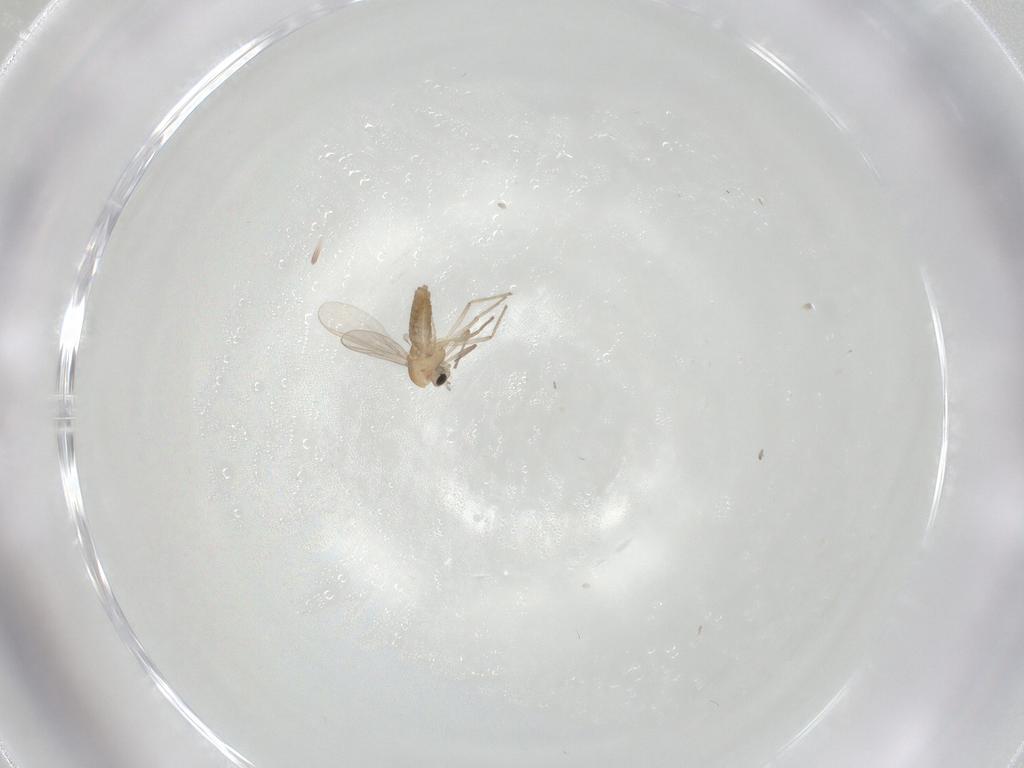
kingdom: Animalia
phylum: Arthropoda
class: Insecta
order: Diptera
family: Chironomidae
